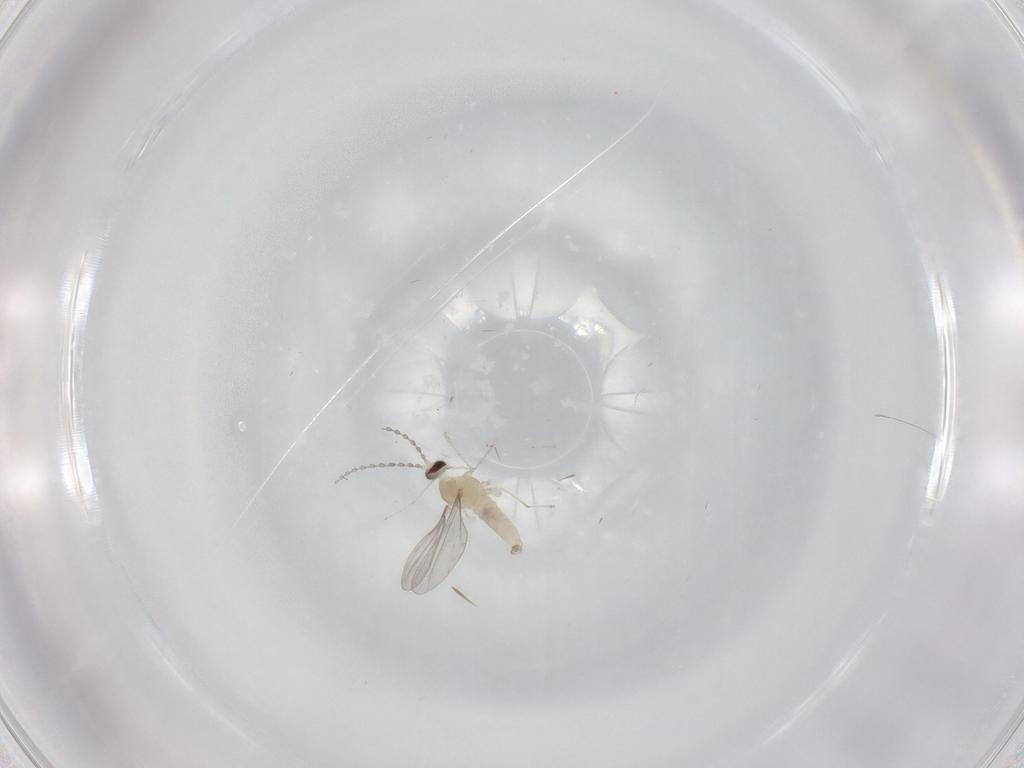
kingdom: Animalia
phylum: Arthropoda
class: Insecta
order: Diptera
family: Cecidomyiidae
